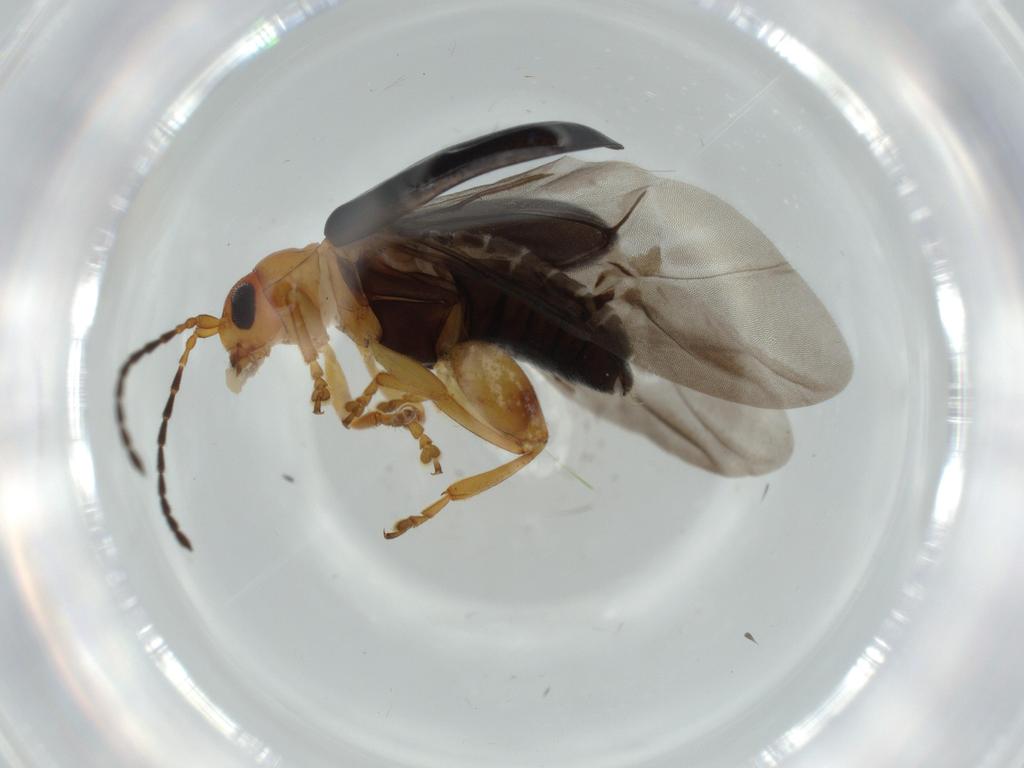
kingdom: Animalia
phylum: Arthropoda
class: Insecta
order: Coleoptera
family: Chrysomelidae
